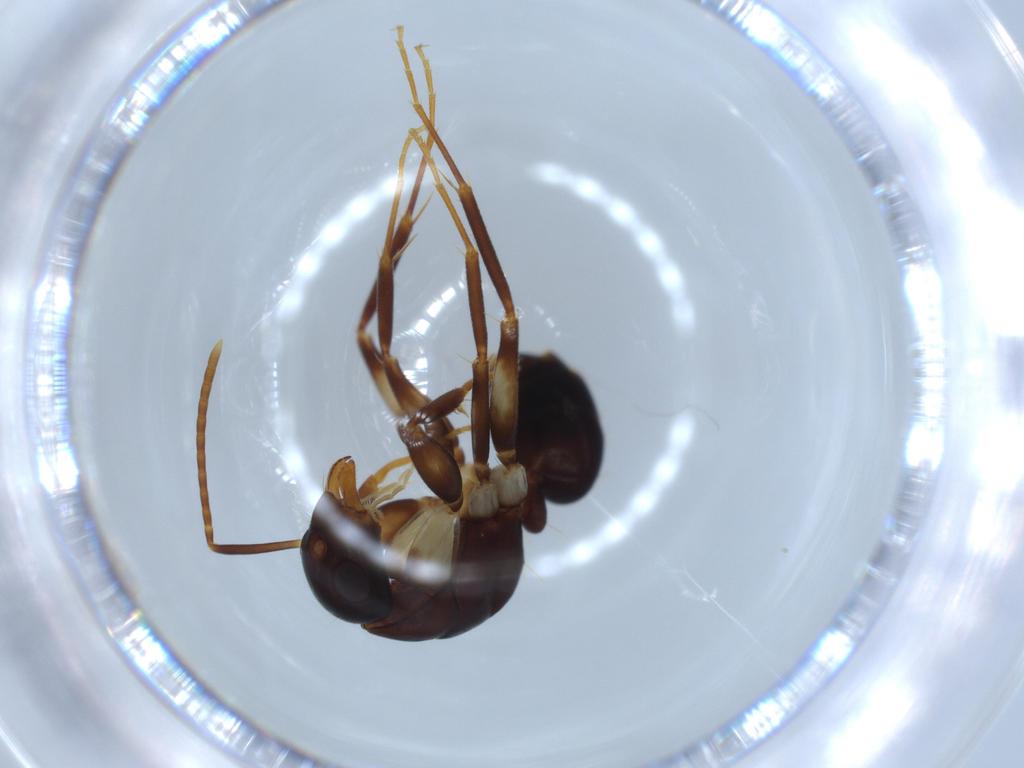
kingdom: Animalia
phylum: Arthropoda
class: Insecta
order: Hymenoptera
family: Formicidae
